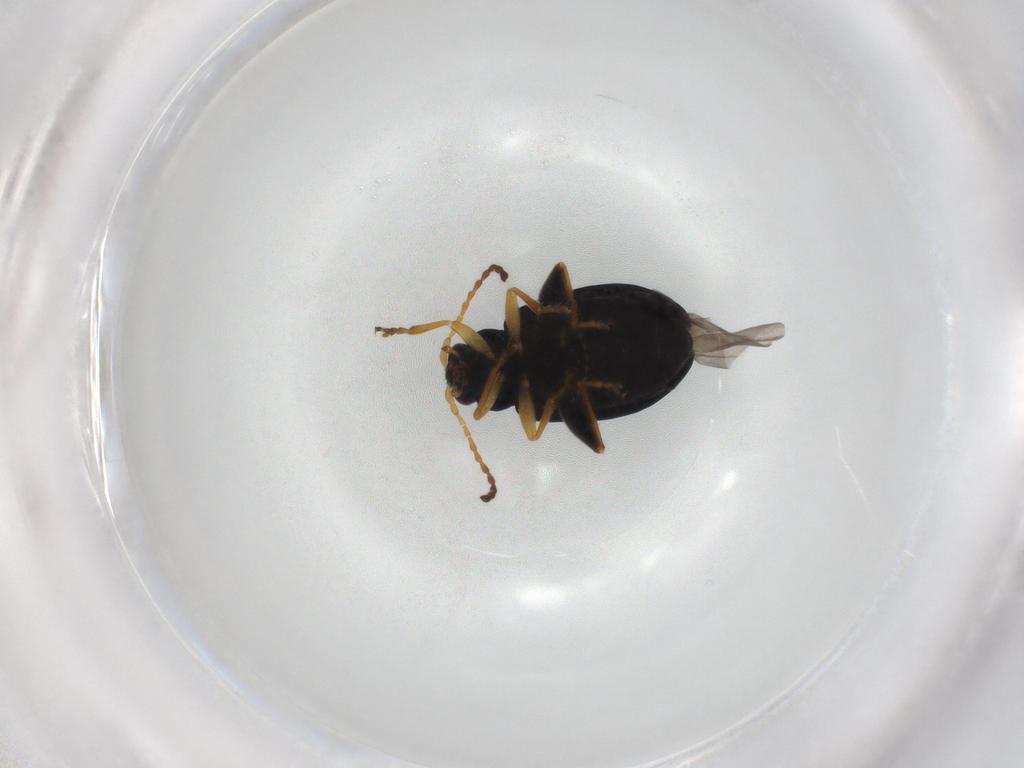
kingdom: Animalia
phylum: Arthropoda
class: Insecta
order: Coleoptera
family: Chrysomelidae
